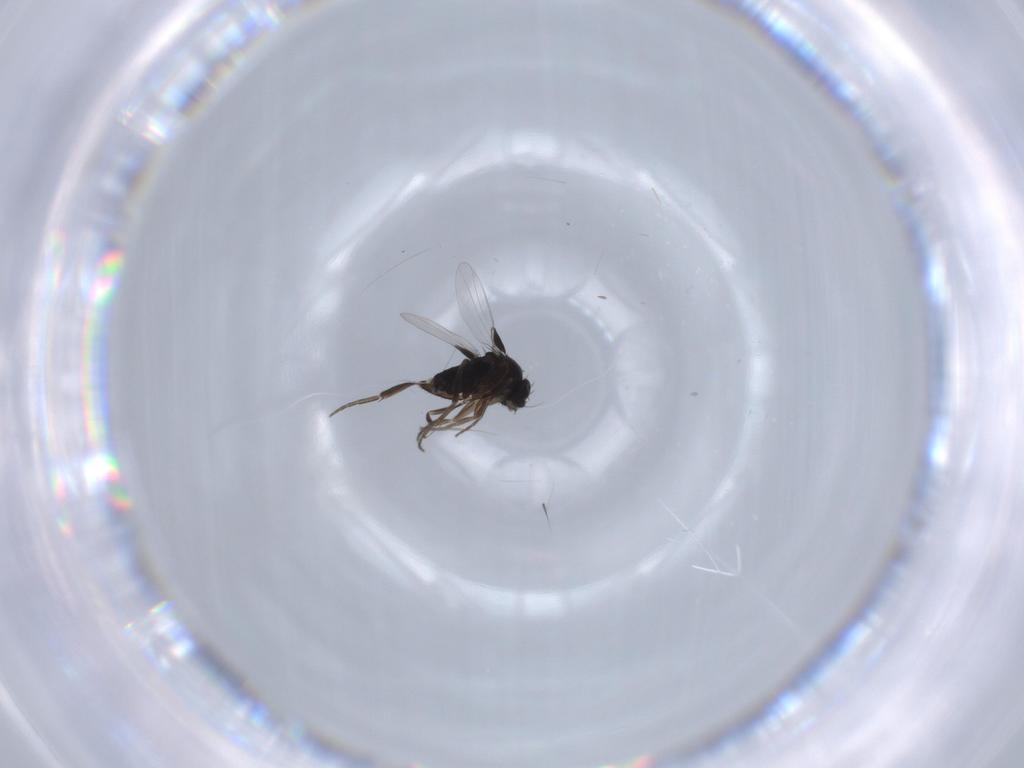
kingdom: Animalia
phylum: Arthropoda
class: Insecta
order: Diptera
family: Phoridae
